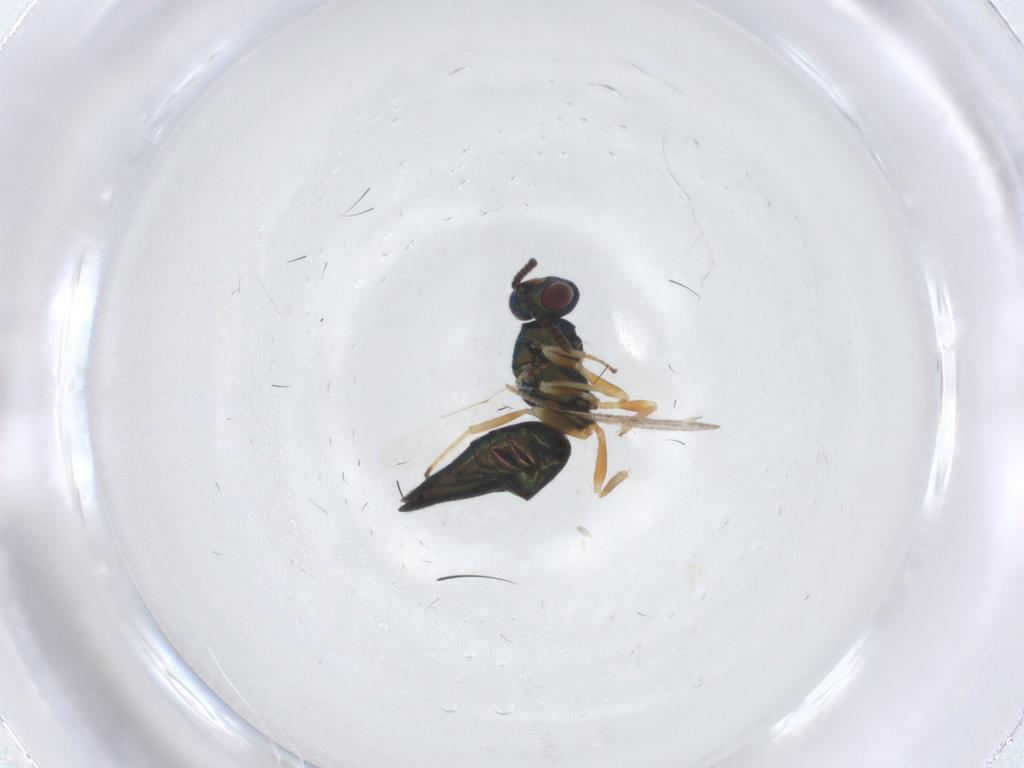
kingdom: Animalia
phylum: Arthropoda
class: Insecta
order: Hymenoptera
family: Pteromalidae
